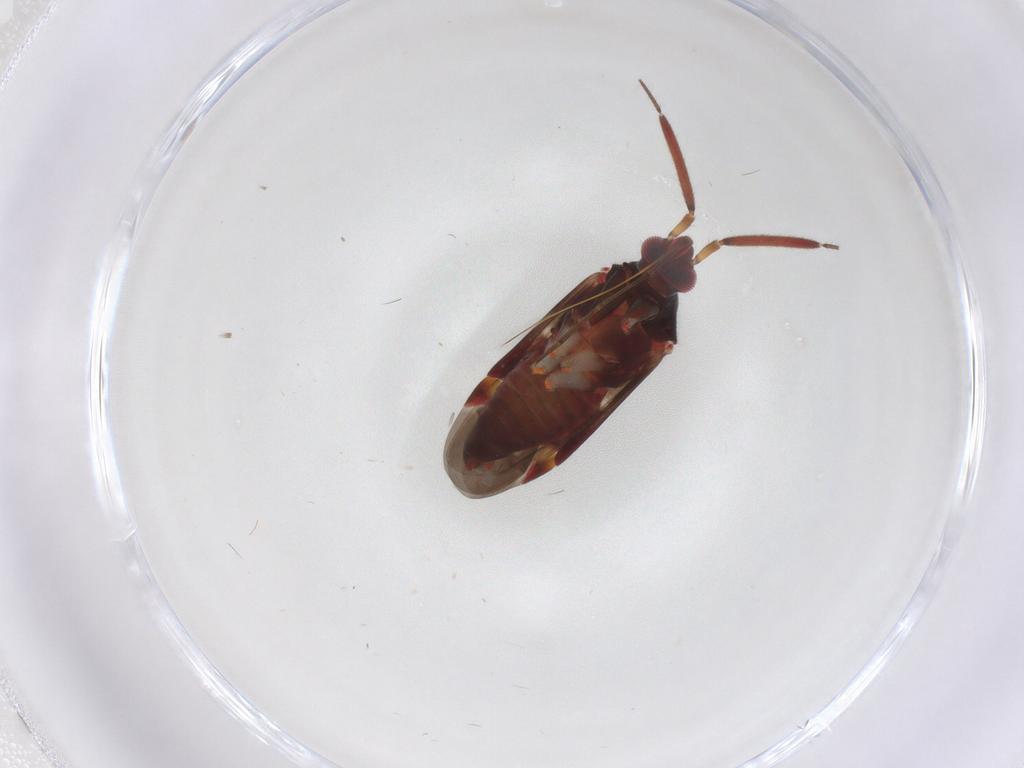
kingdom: Animalia
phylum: Arthropoda
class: Insecta
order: Hemiptera
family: Miridae
